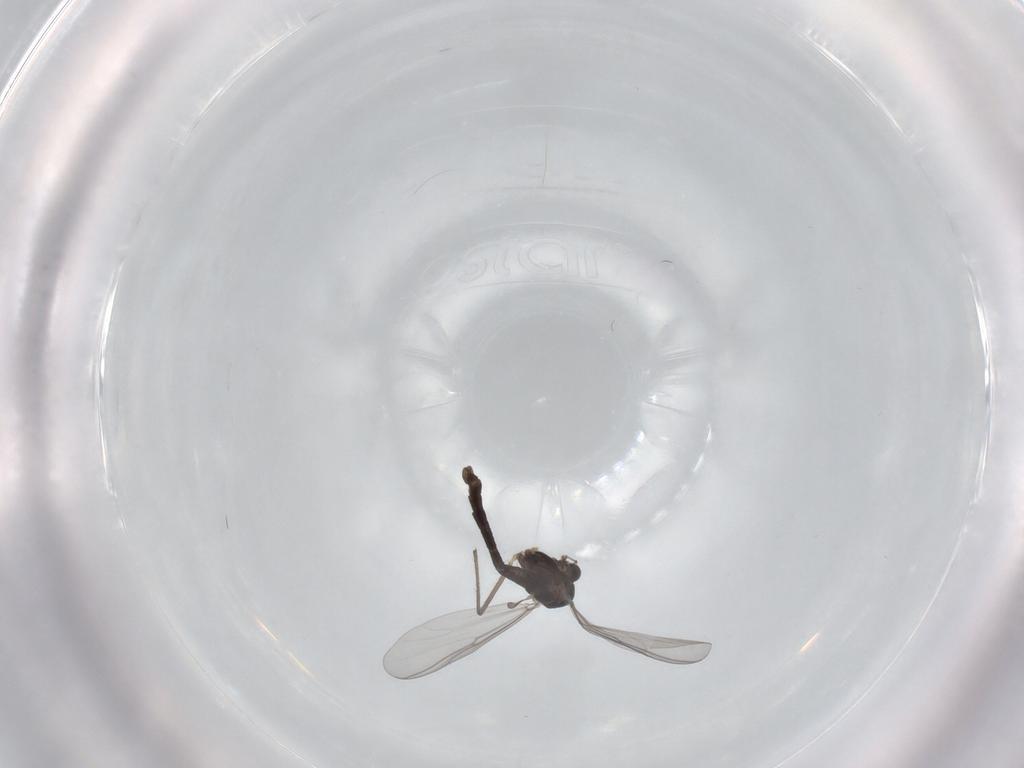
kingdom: Animalia
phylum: Arthropoda
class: Insecta
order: Diptera
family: Chironomidae
